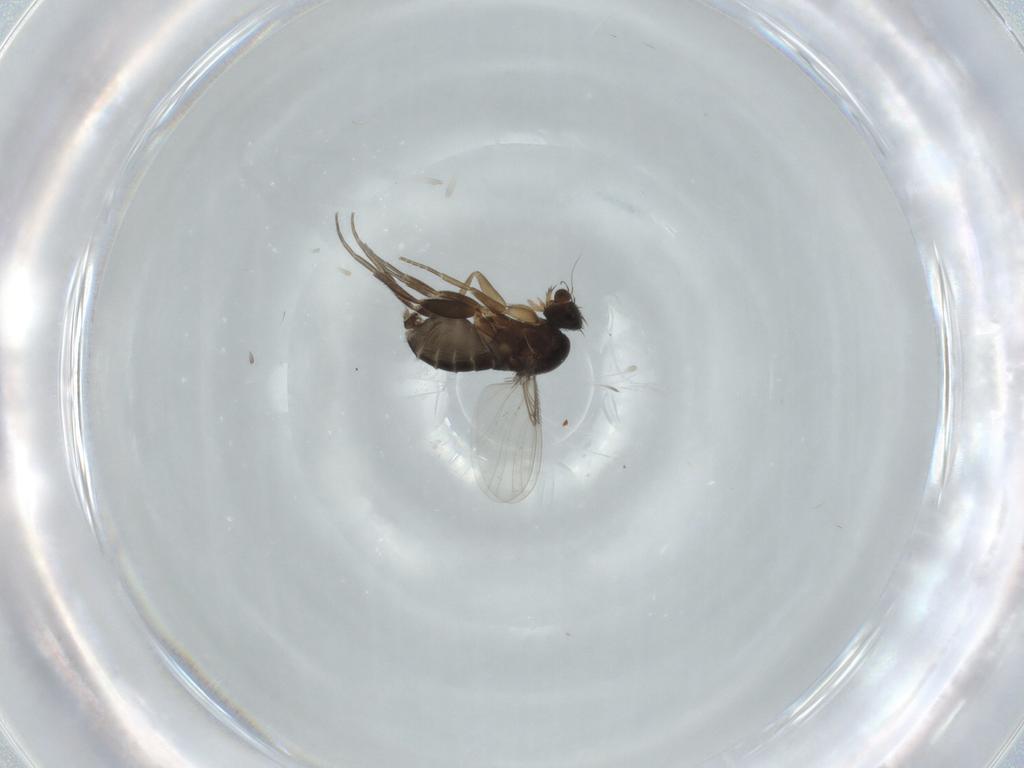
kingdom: Animalia
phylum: Arthropoda
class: Insecta
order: Diptera
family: Phoridae
